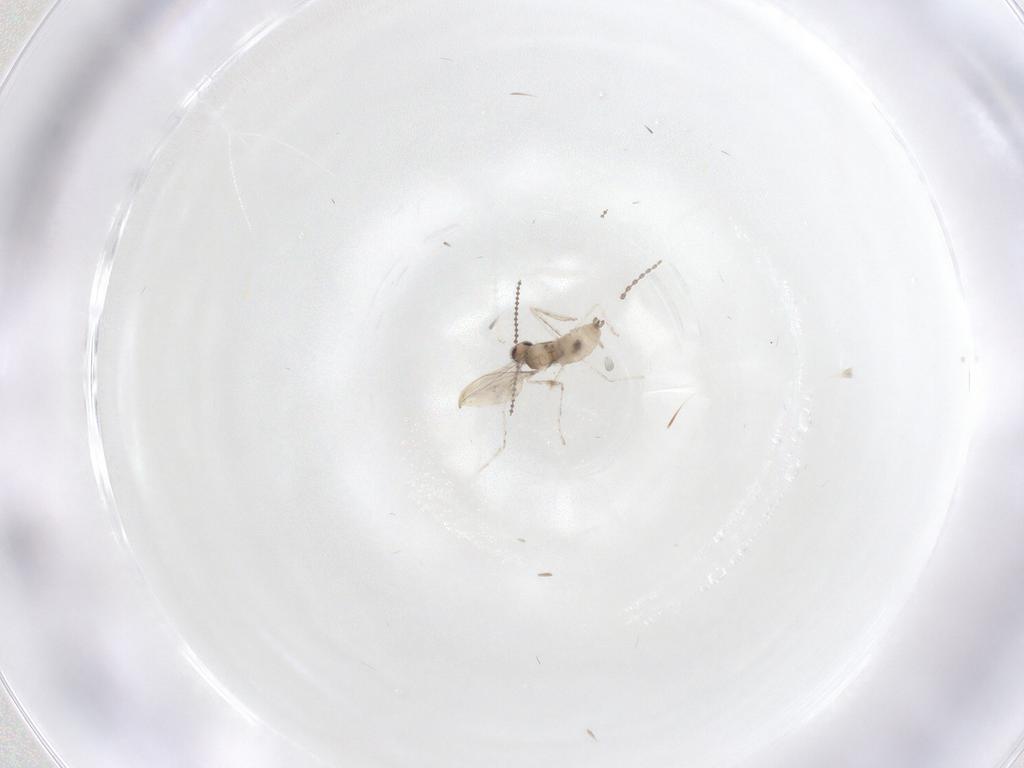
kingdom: Animalia
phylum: Arthropoda
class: Insecta
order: Diptera
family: Cecidomyiidae
